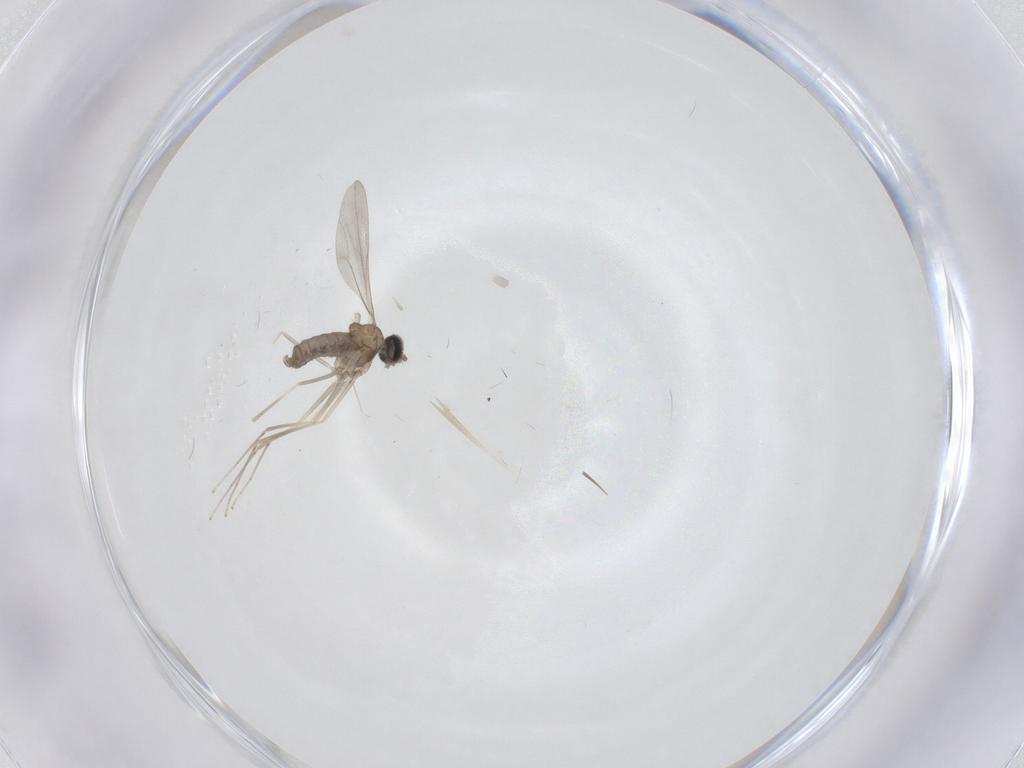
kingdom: Animalia
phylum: Arthropoda
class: Insecta
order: Diptera
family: Cecidomyiidae
